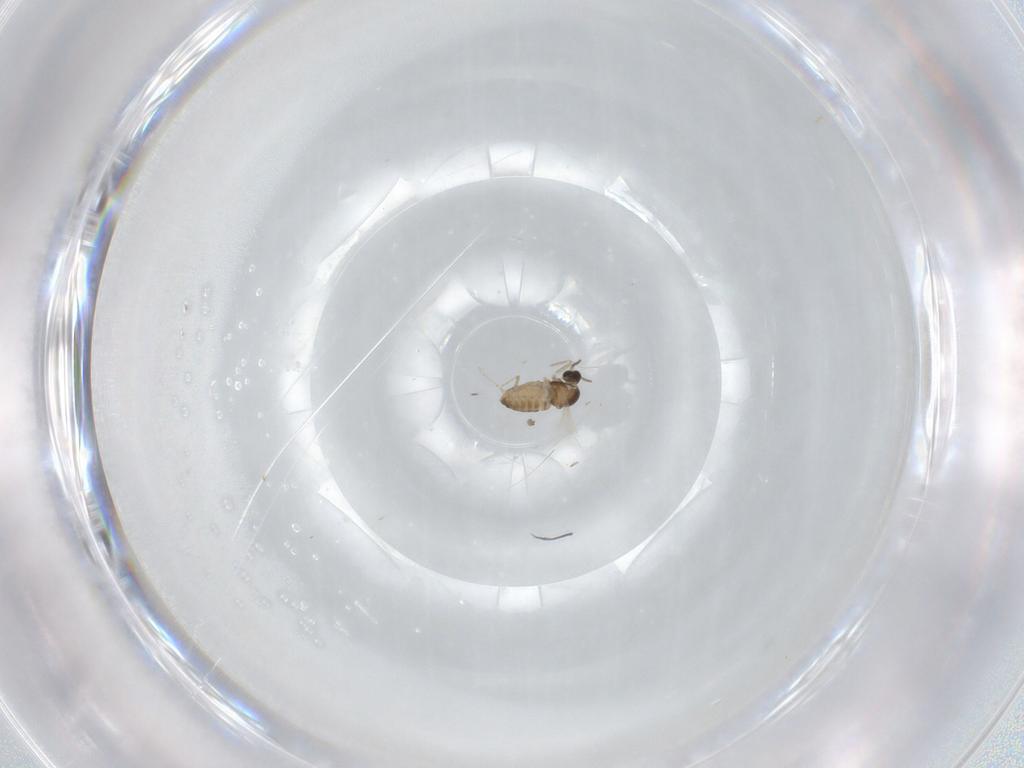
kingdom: Animalia
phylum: Arthropoda
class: Insecta
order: Diptera
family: Cecidomyiidae
